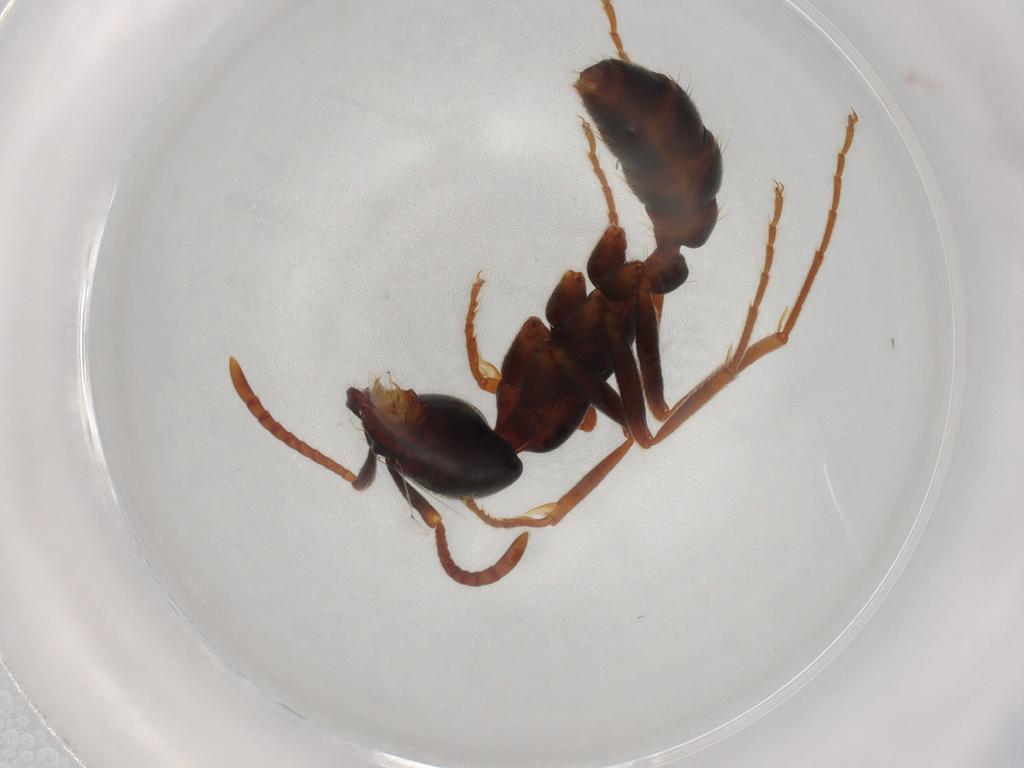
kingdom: Animalia
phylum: Arthropoda
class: Insecta
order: Hymenoptera
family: Formicidae
